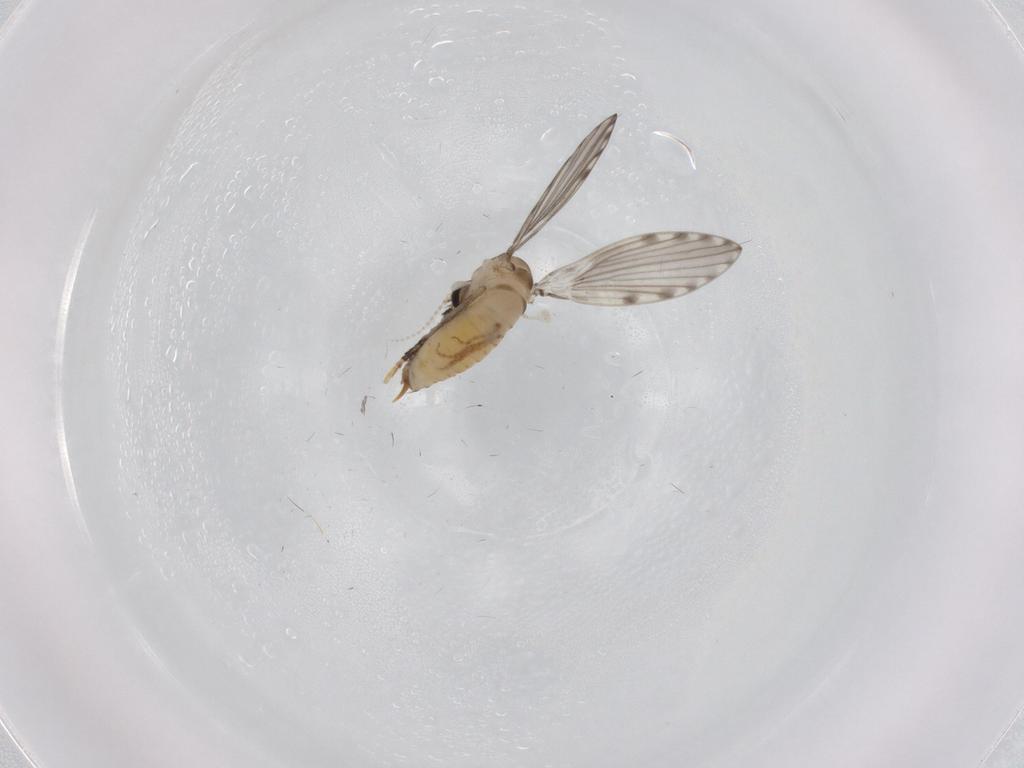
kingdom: Animalia
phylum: Arthropoda
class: Insecta
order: Diptera
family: Psychodidae
